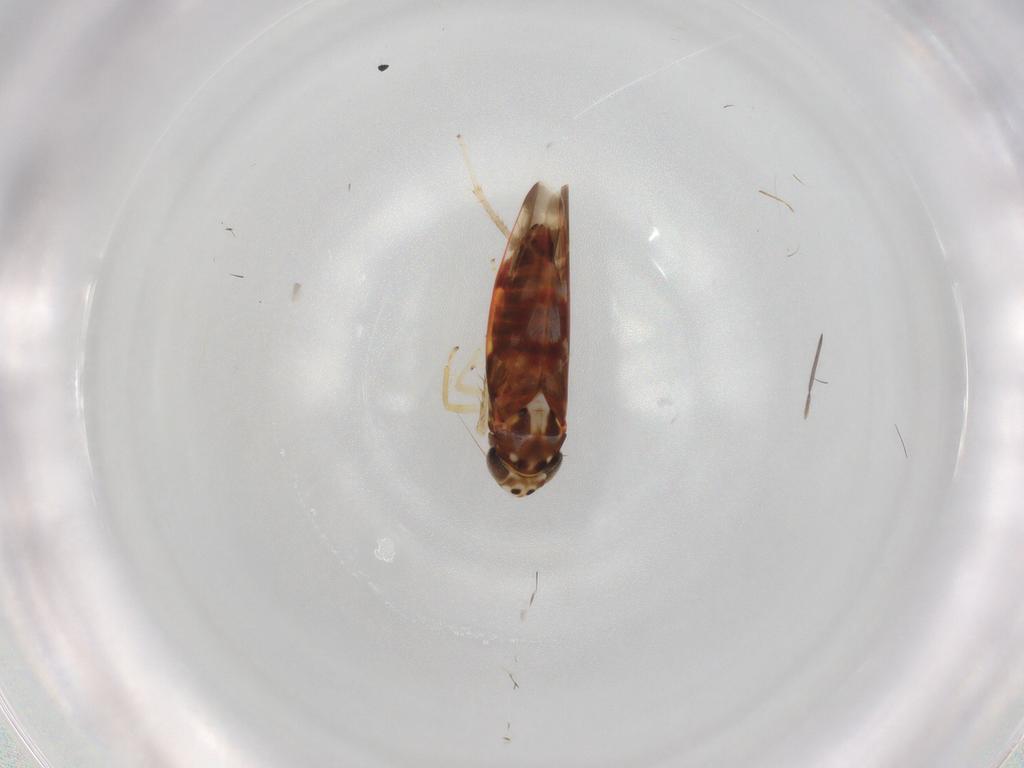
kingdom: Animalia
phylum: Arthropoda
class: Insecta
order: Hemiptera
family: Cicadellidae
